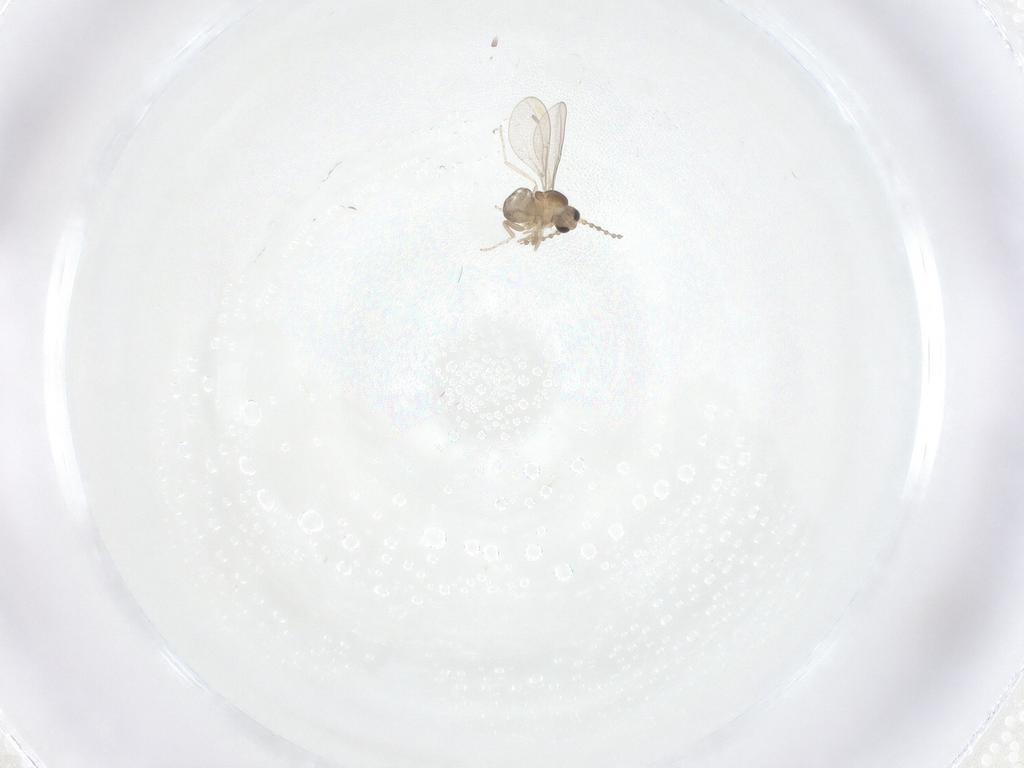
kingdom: Animalia
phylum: Arthropoda
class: Insecta
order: Diptera
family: Cecidomyiidae
